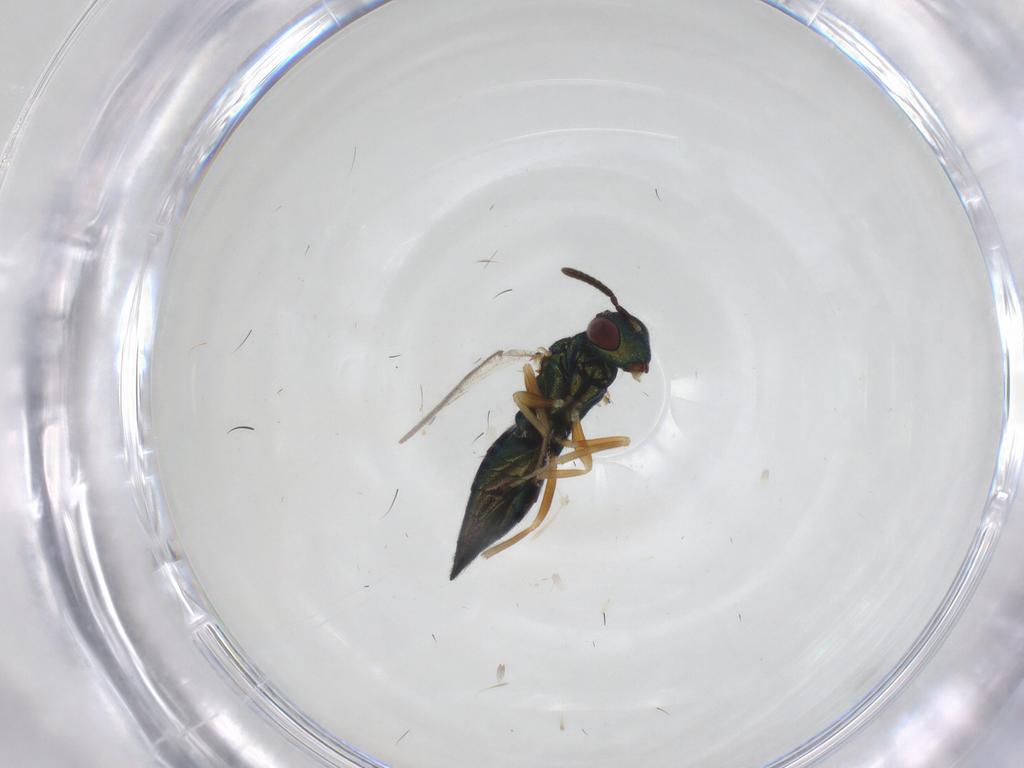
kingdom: Animalia
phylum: Arthropoda
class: Insecta
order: Hymenoptera
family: Pteromalidae
